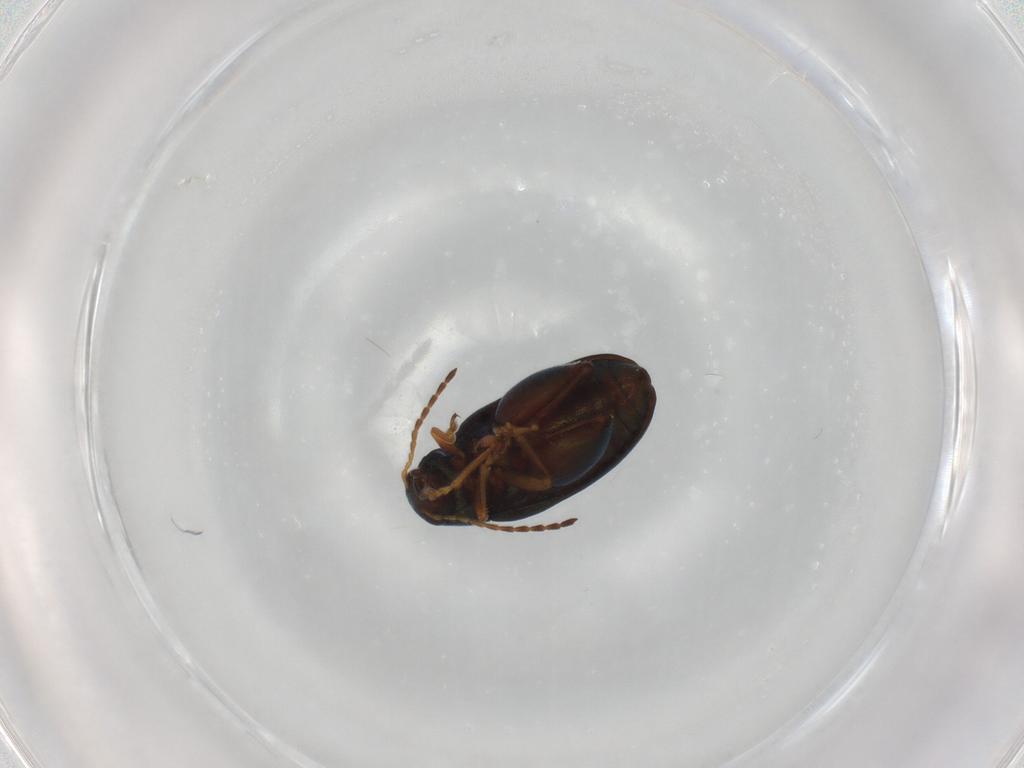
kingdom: Animalia
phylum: Arthropoda
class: Insecta
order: Coleoptera
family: Chrysomelidae
